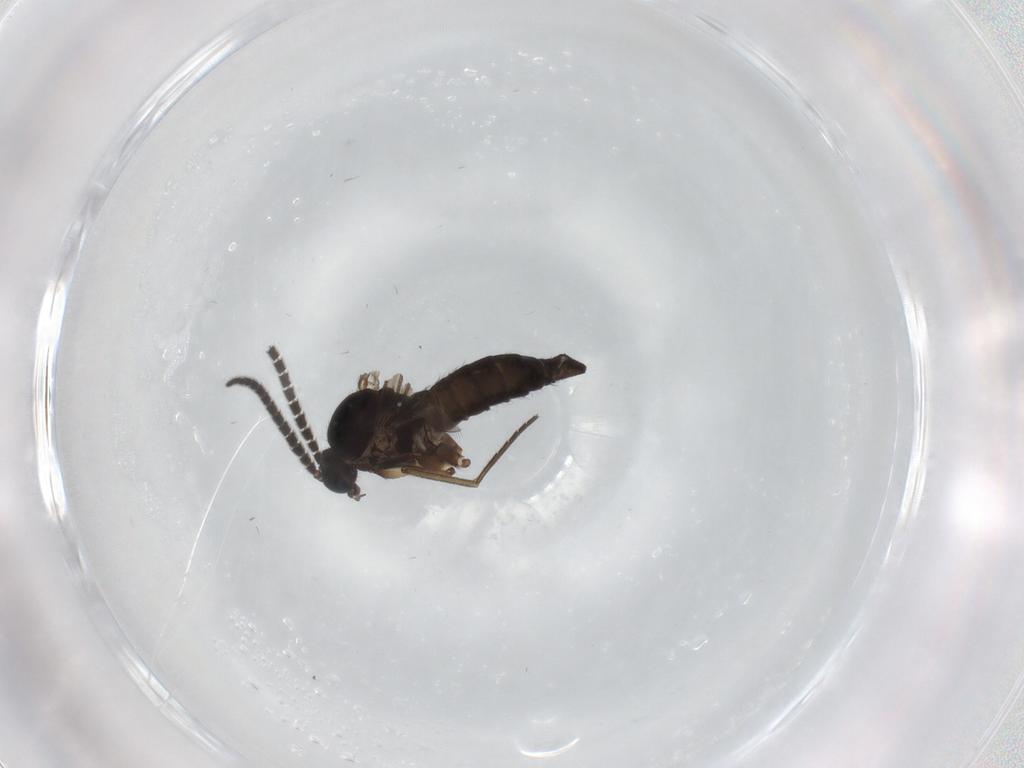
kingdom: Animalia
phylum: Arthropoda
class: Insecta
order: Diptera
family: Sciaridae
